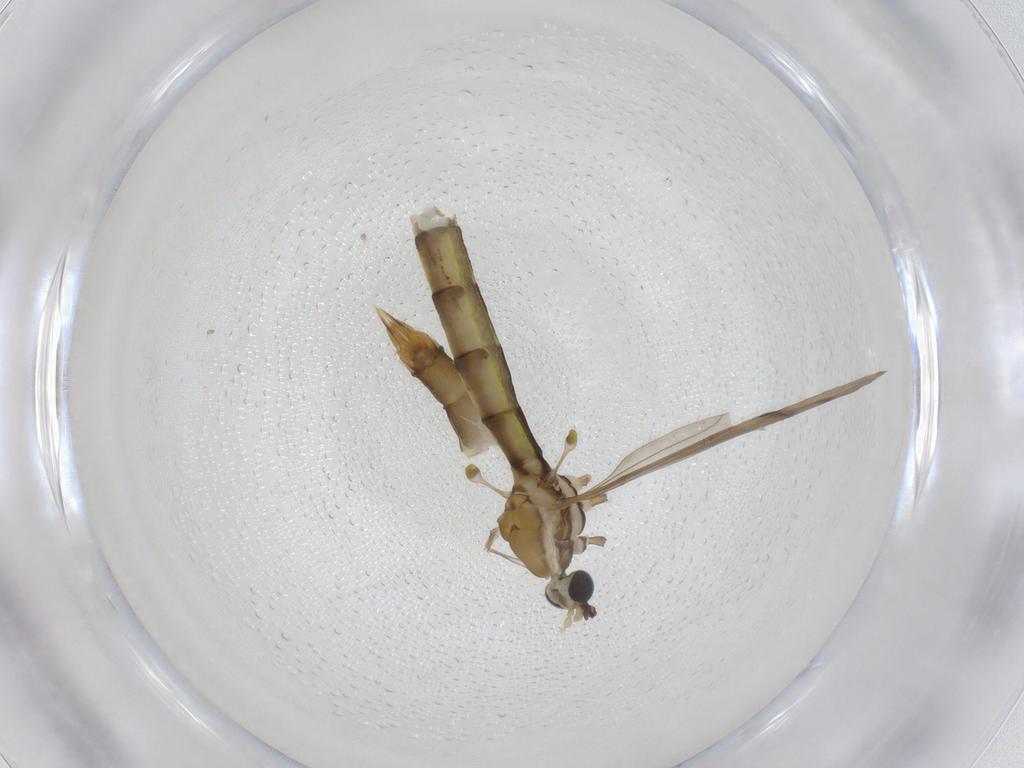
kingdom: Animalia
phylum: Arthropoda
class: Insecta
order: Diptera
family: Limoniidae
